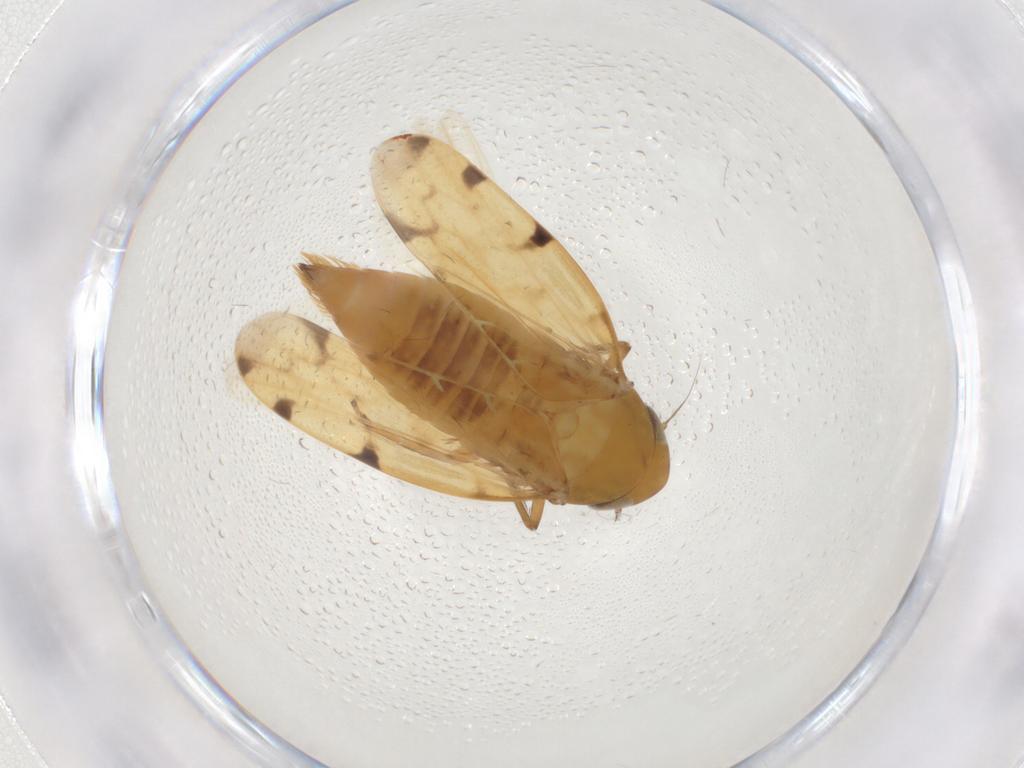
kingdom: Animalia
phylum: Arthropoda
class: Insecta
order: Hemiptera
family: Cicadellidae
